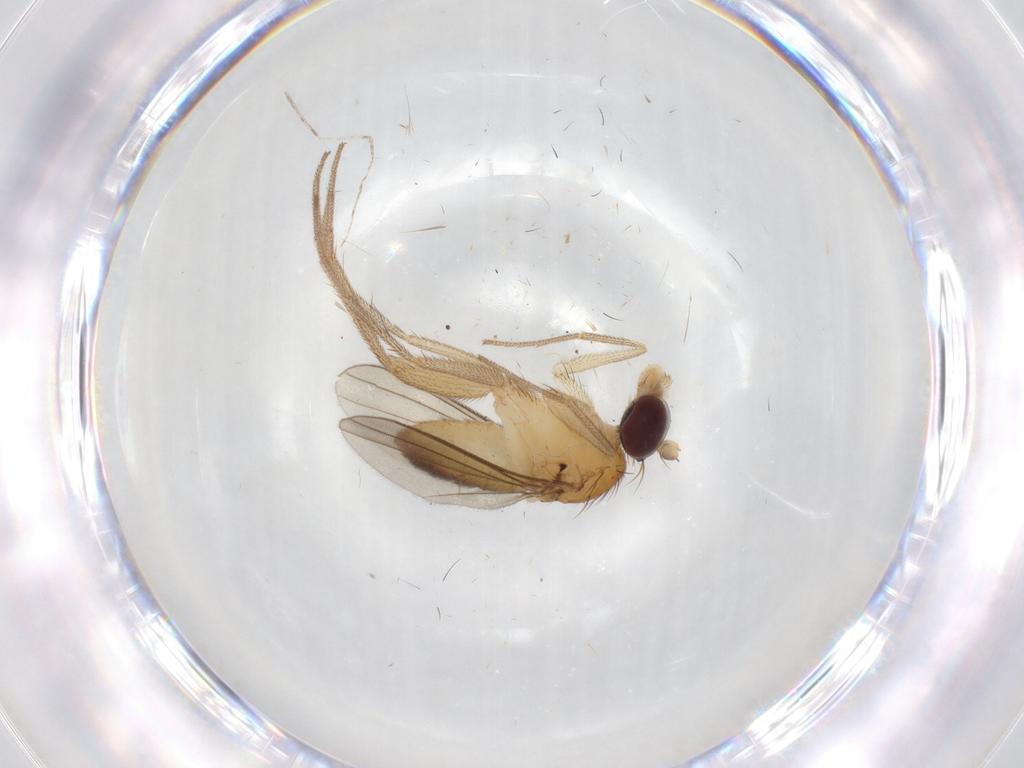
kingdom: Animalia
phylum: Arthropoda
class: Insecta
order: Diptera
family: Dolichopodidae
